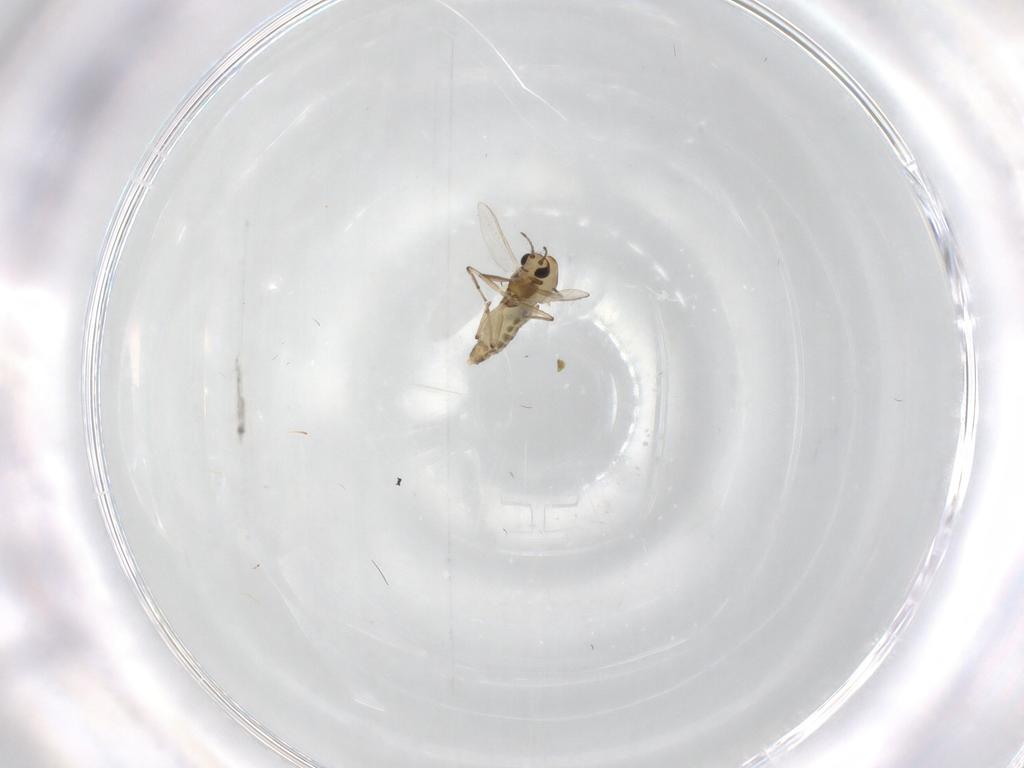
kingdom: Animalia
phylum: Arthropoda
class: Insecta
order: Diptera
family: Chironomidae
